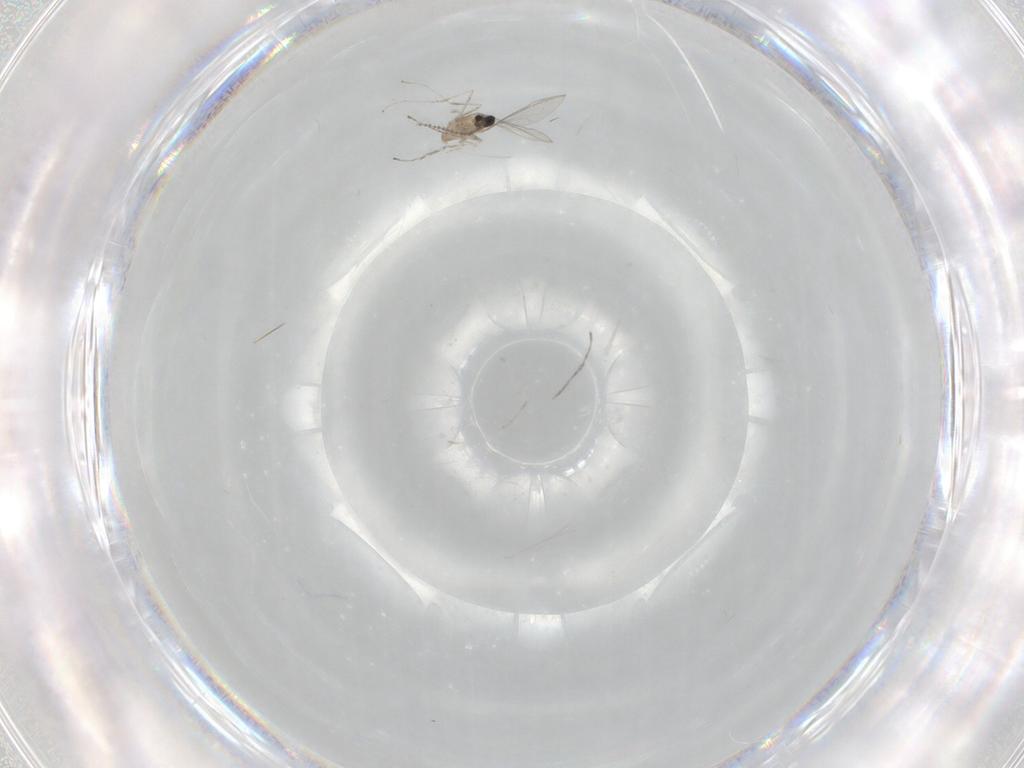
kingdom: Animalia
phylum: Arthropoda
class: Insecta
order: Diptera
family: Cecidomyiidae
